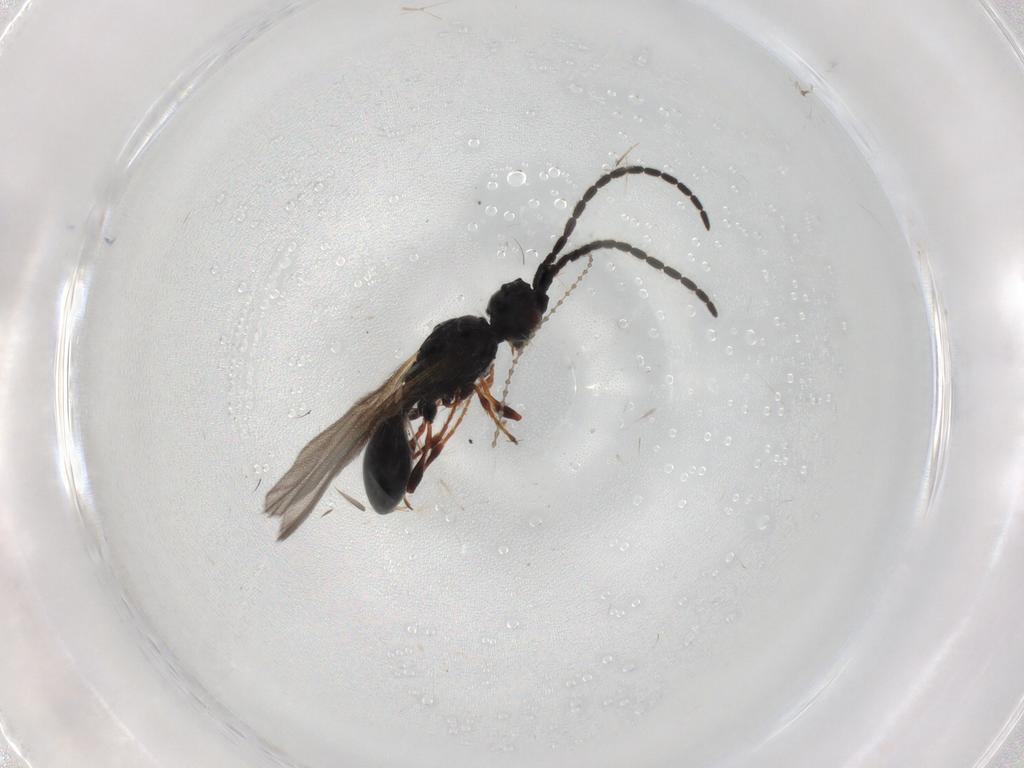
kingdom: Animalia
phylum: Arthropoda
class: Insecta
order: Hymenoptera
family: Diapriidae
